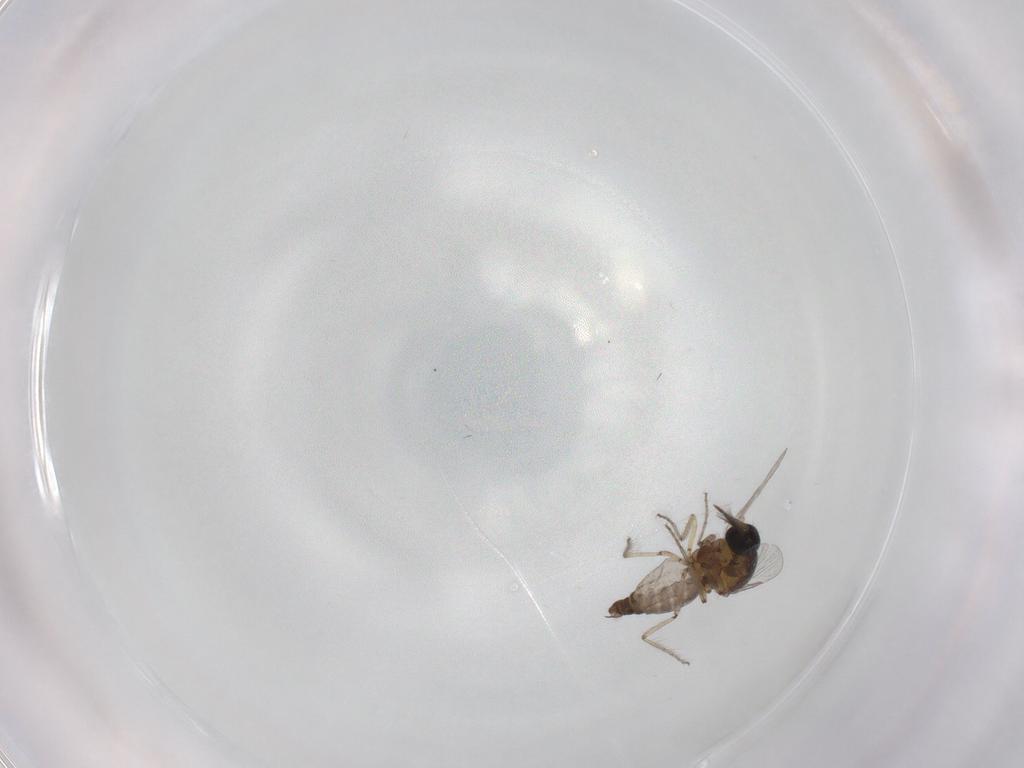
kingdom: Animalia
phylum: Arthropoda
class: Insecta
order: Diptera
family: Ceratopogonidae
